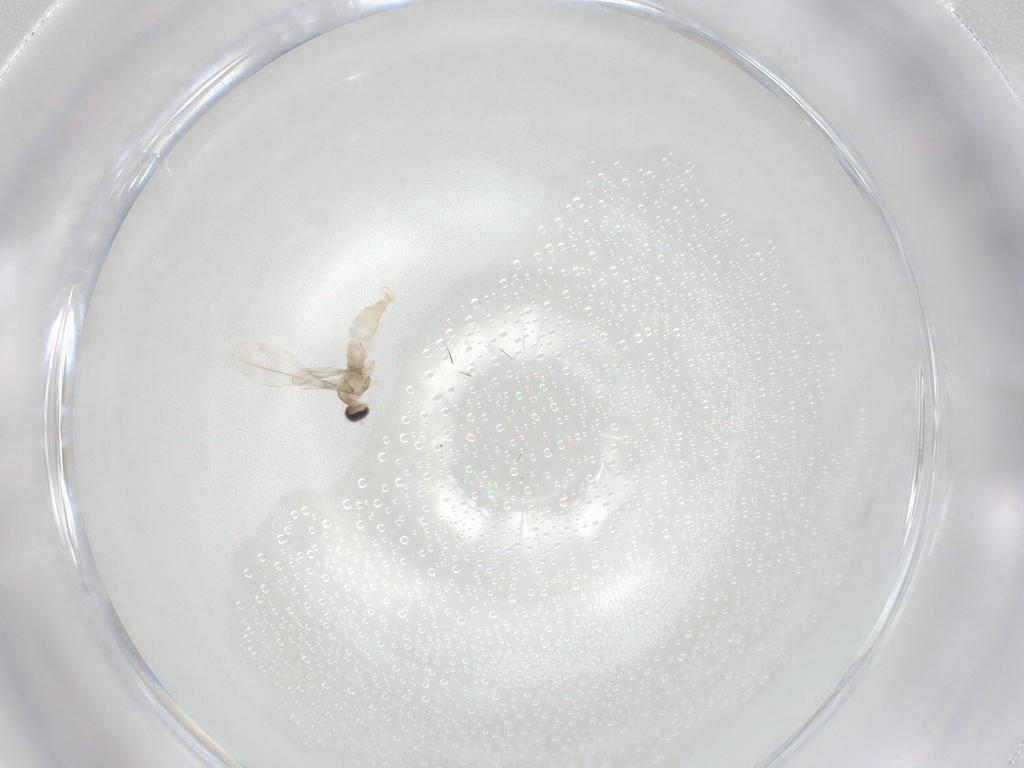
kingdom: Animalia
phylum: Arthropoda
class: Insecta
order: Diptera
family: Cecidomyiidae
